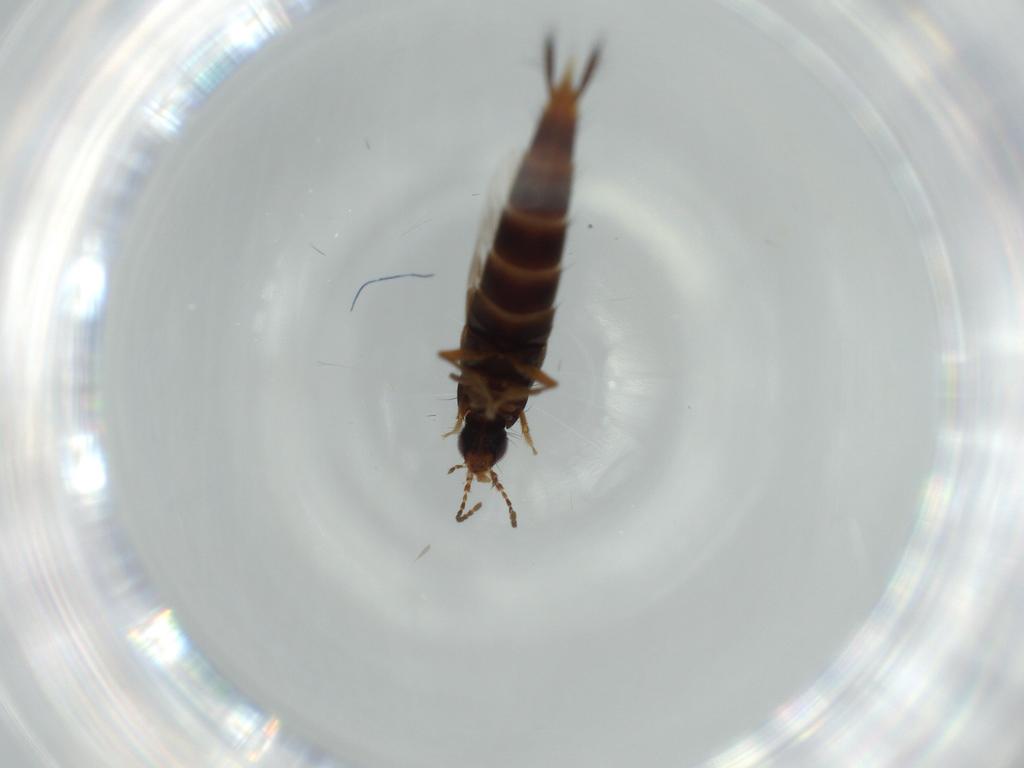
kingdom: Animalia
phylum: Arthropoda
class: Insecta
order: Coleoptera
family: Staphylinidae
